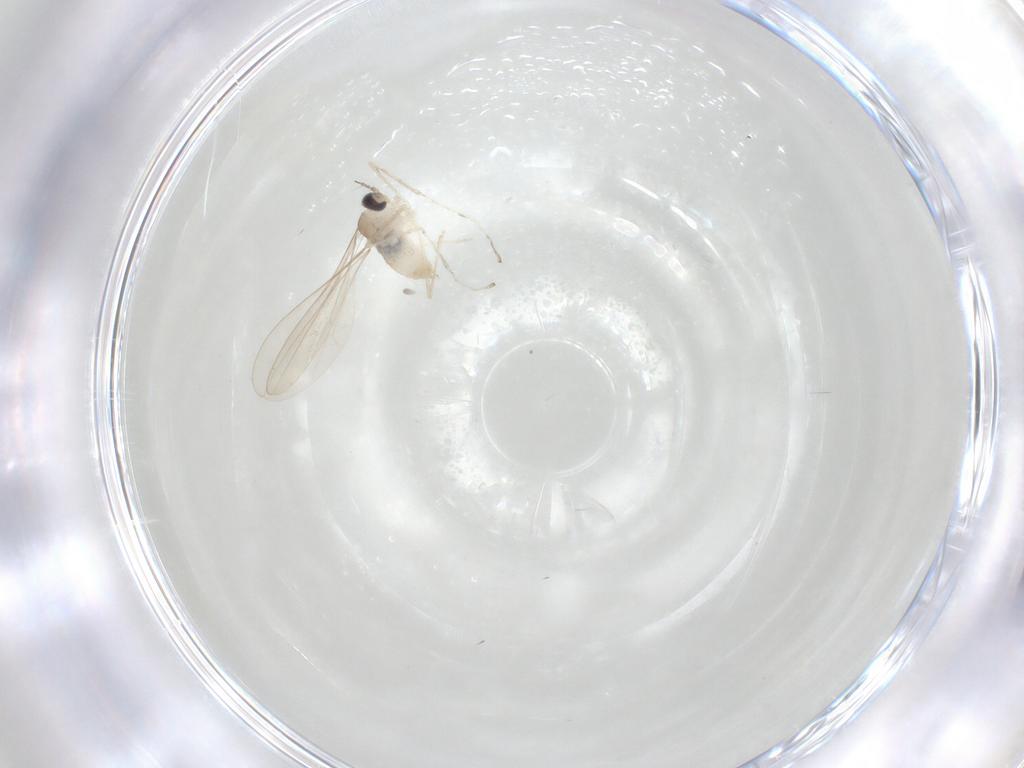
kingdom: Animalia
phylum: Arthropoda
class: Insecta
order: Diptera
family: Cecidomyiidae
